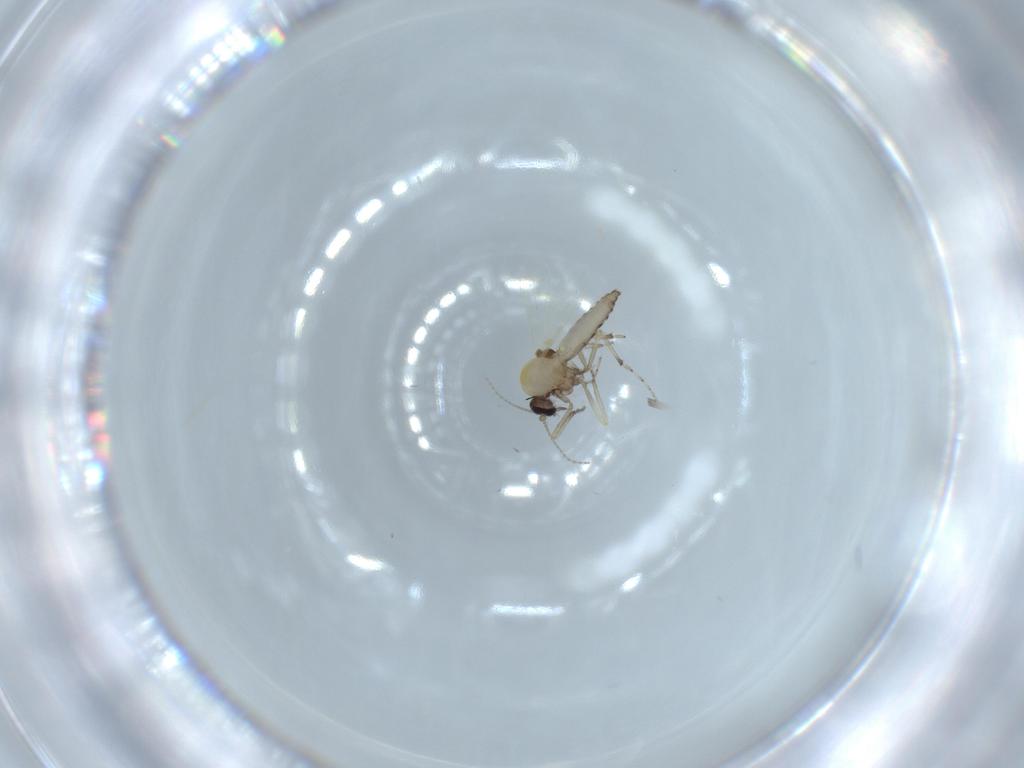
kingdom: Animalia
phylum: Arthropoda
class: Insecta
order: Diptera
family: Ceratopogonidae
